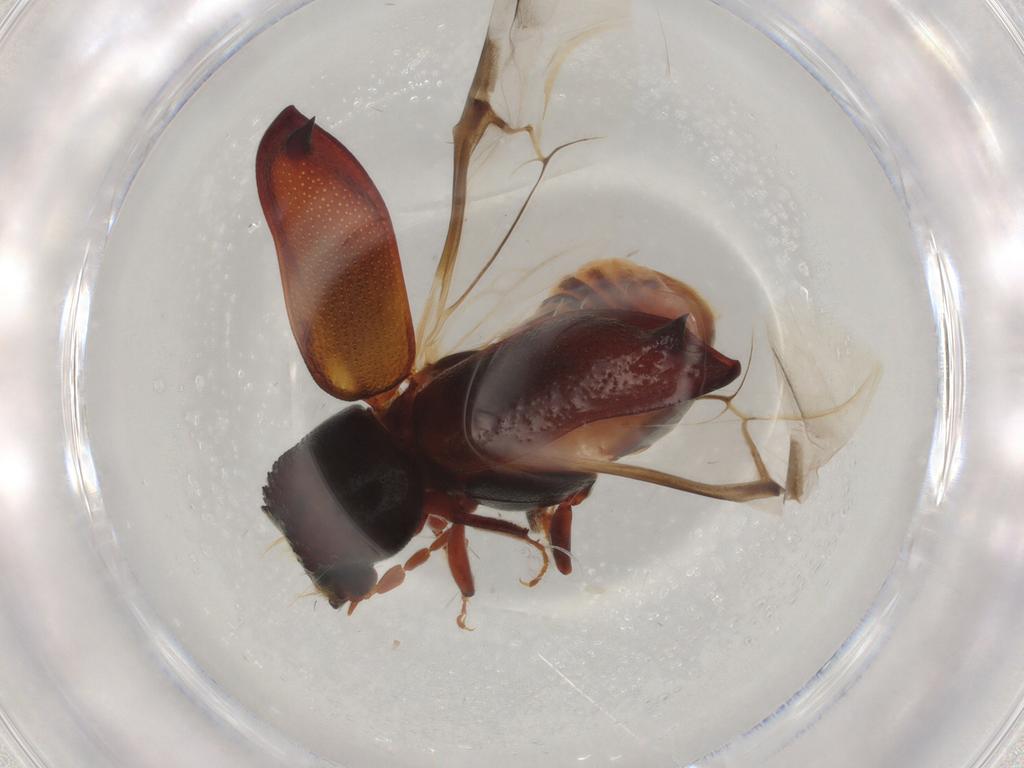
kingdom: Animalia
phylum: Arthropoda
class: Insecta
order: Coleoptera
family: Bostrichidae
